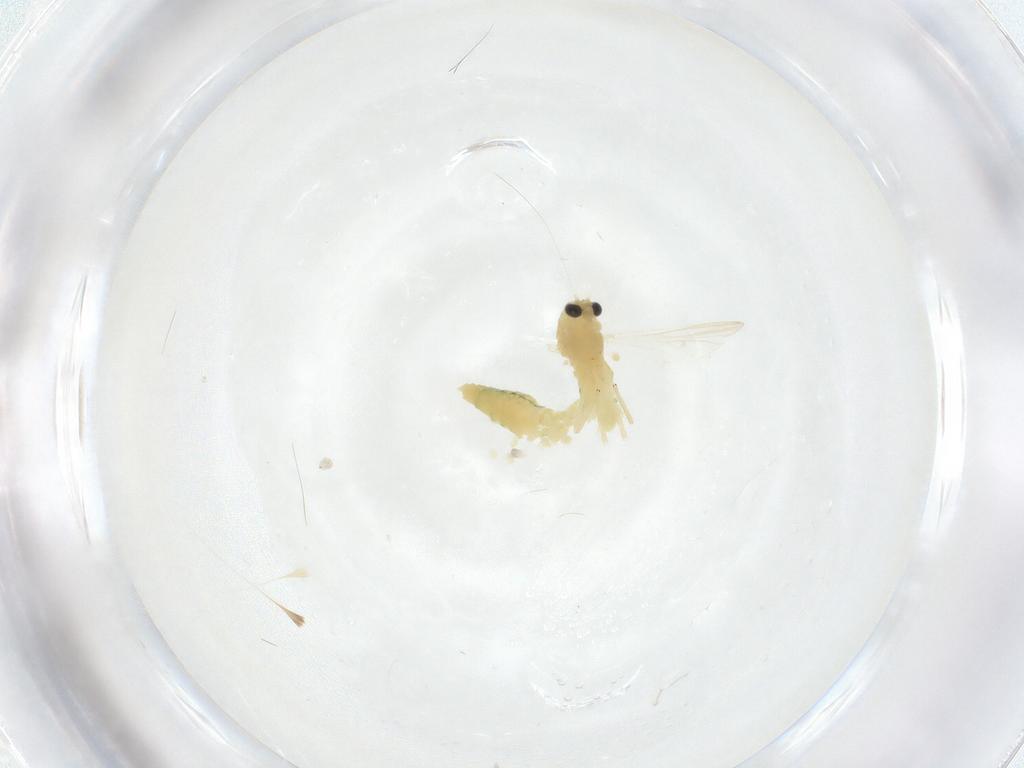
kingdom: Animalia
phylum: Arthropoda
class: Insecta
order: Diptera
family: Chironomidae
